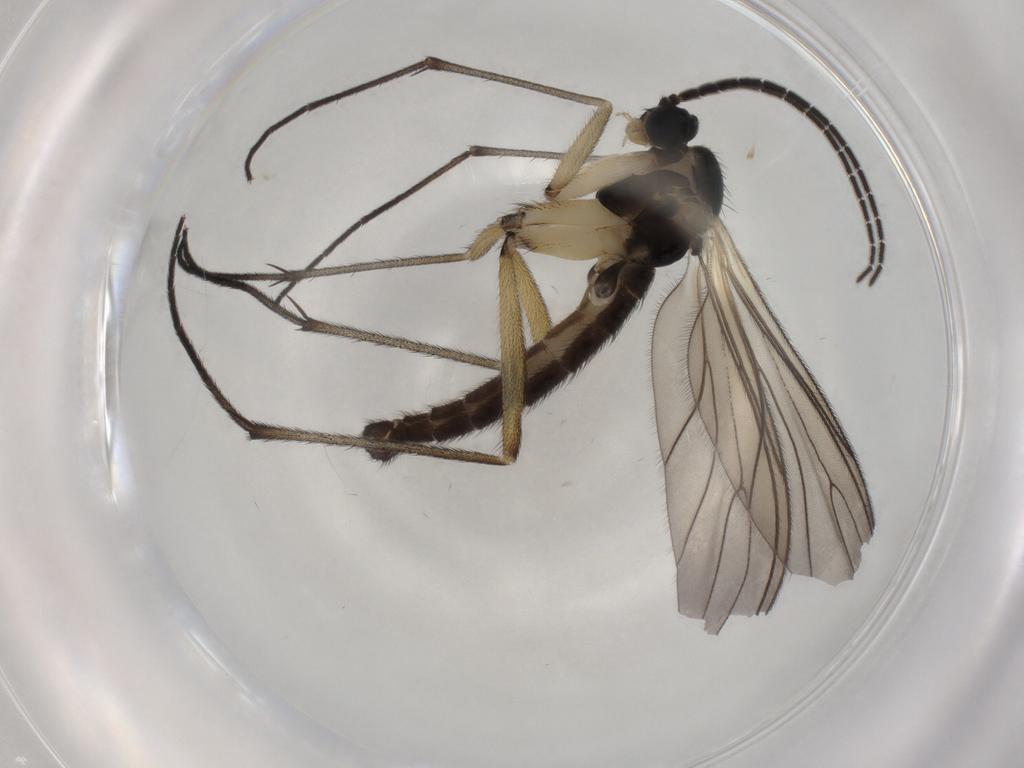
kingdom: Animalia
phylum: Arthropoda
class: Insecta
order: Diptera
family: Sciaridae
